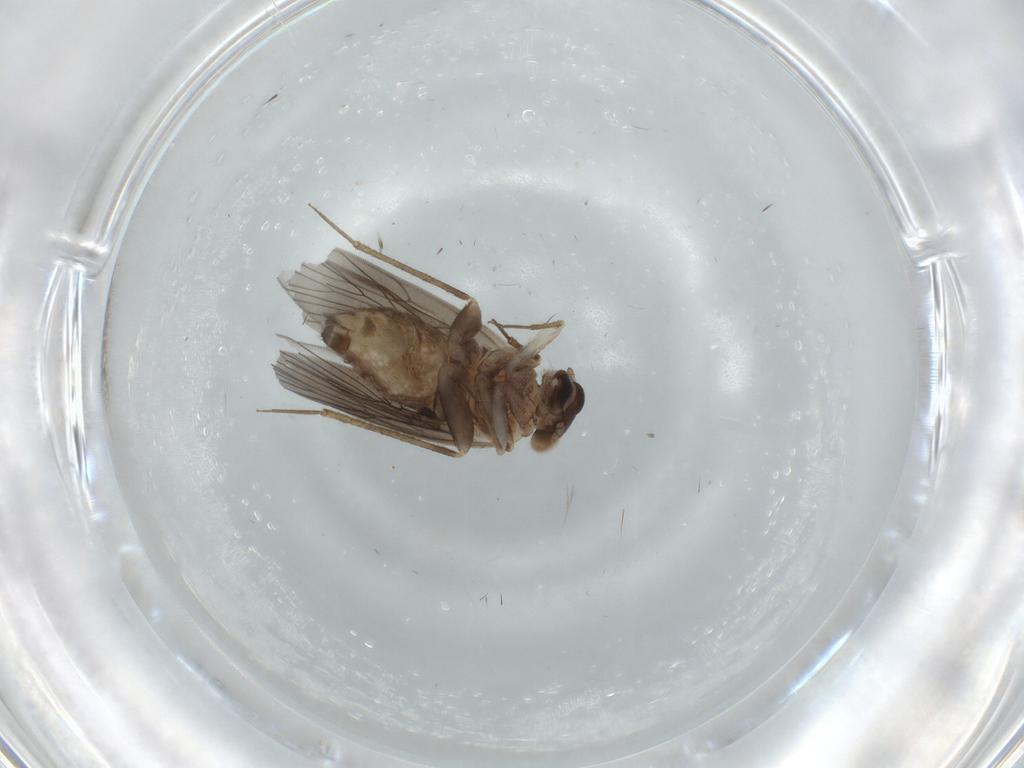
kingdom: Animalia
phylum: Arthropoda
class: Insecta
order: Psocodea
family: Lepidopsocidae
